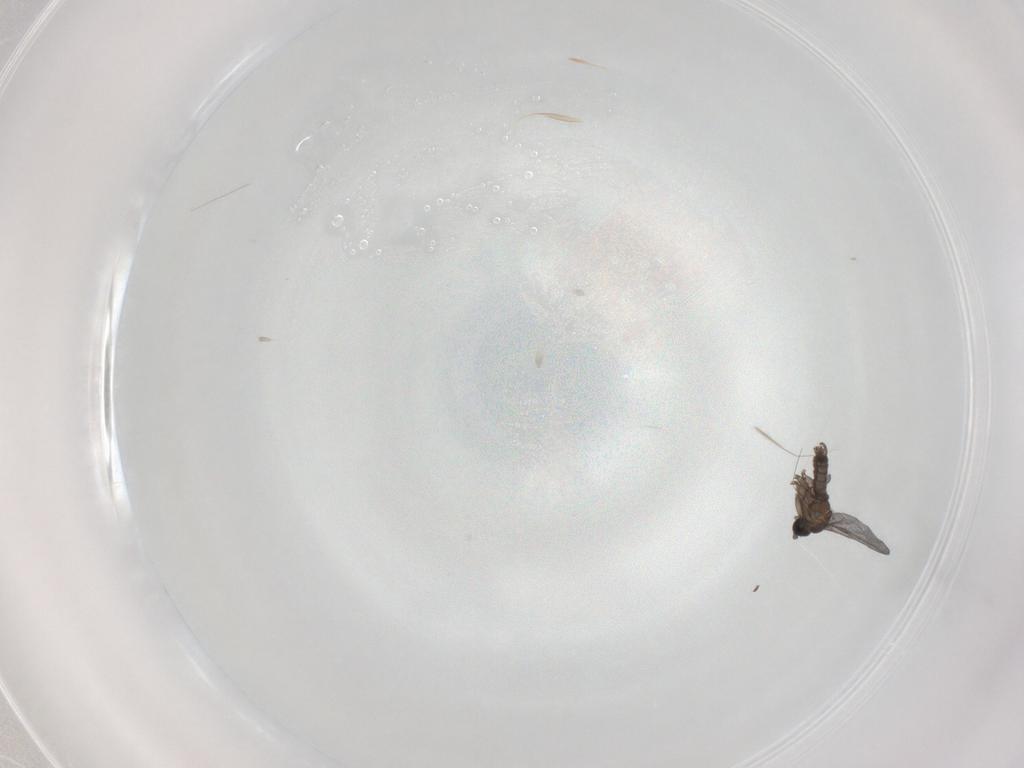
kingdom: Animalia
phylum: Arthropoda
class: Insecta
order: Diptera
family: Sciaridae
